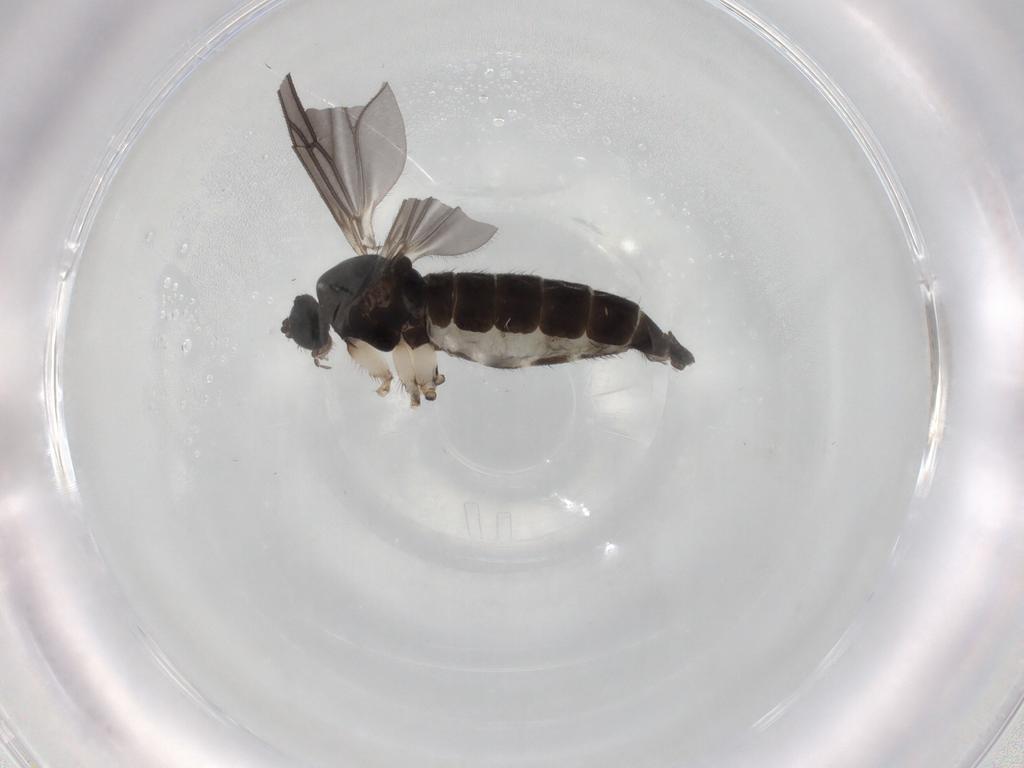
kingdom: Animalia
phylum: Arthropoda
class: Insecta
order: Diptera
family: Sciaridae
